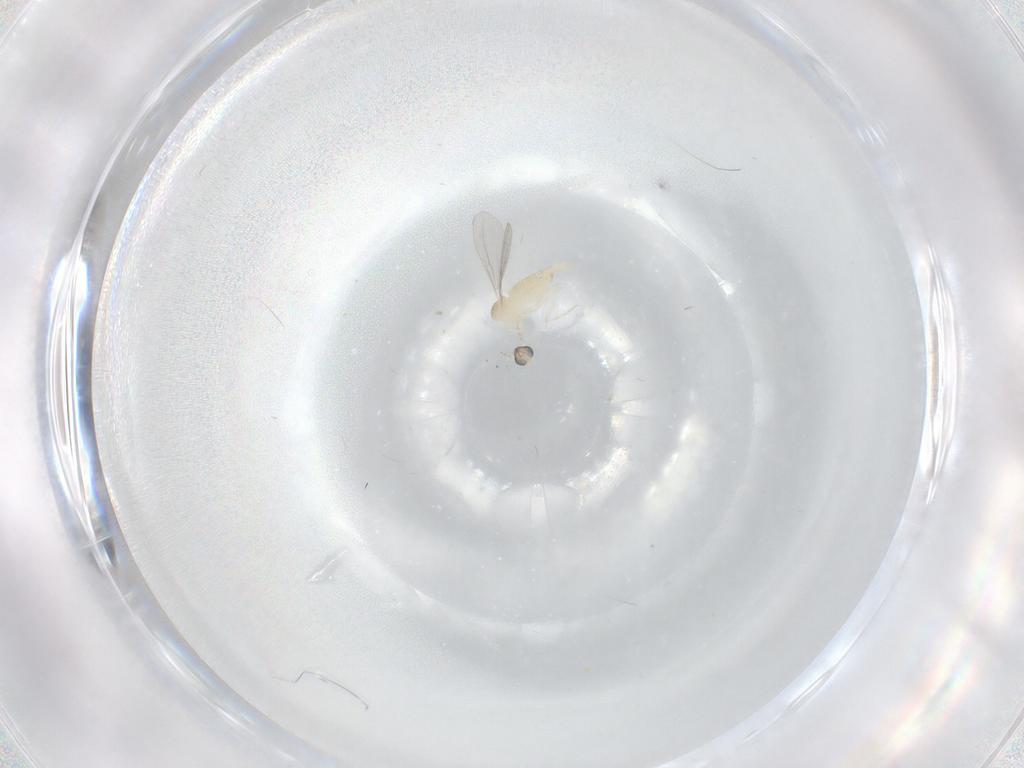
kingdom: Animalia
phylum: Arthropoda
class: Insecta
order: Diptera
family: Cecidomyiidae
